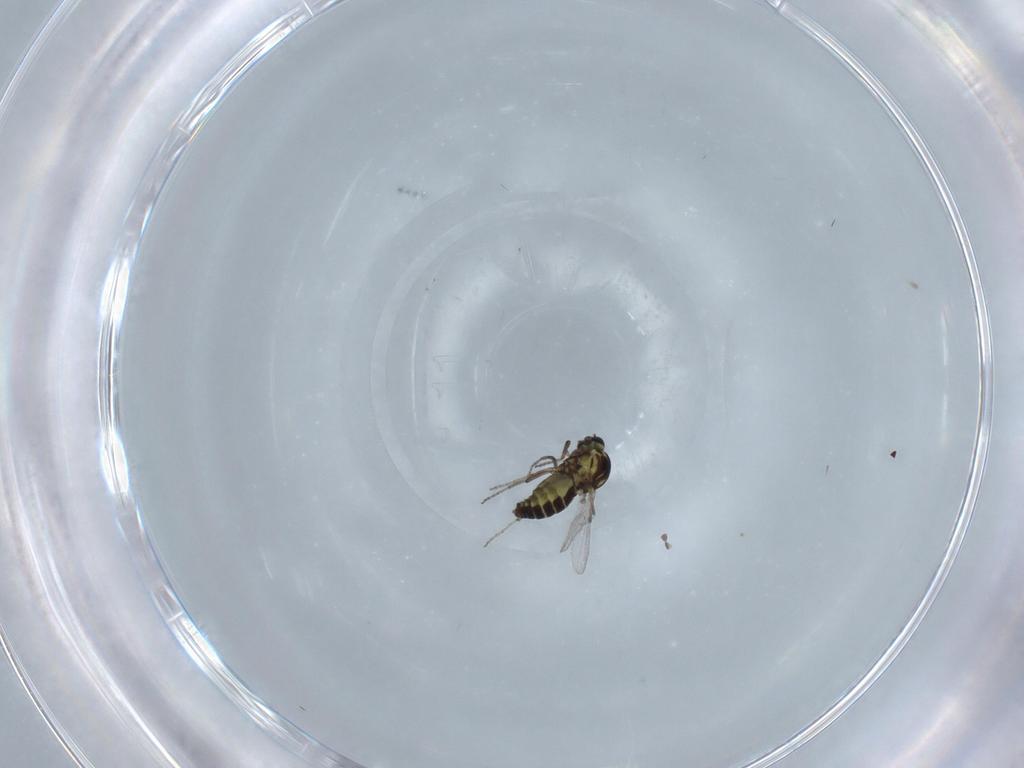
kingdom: Animalia
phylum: Arthropoda
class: Insecta
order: Diptera
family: Ceratopogonidae
